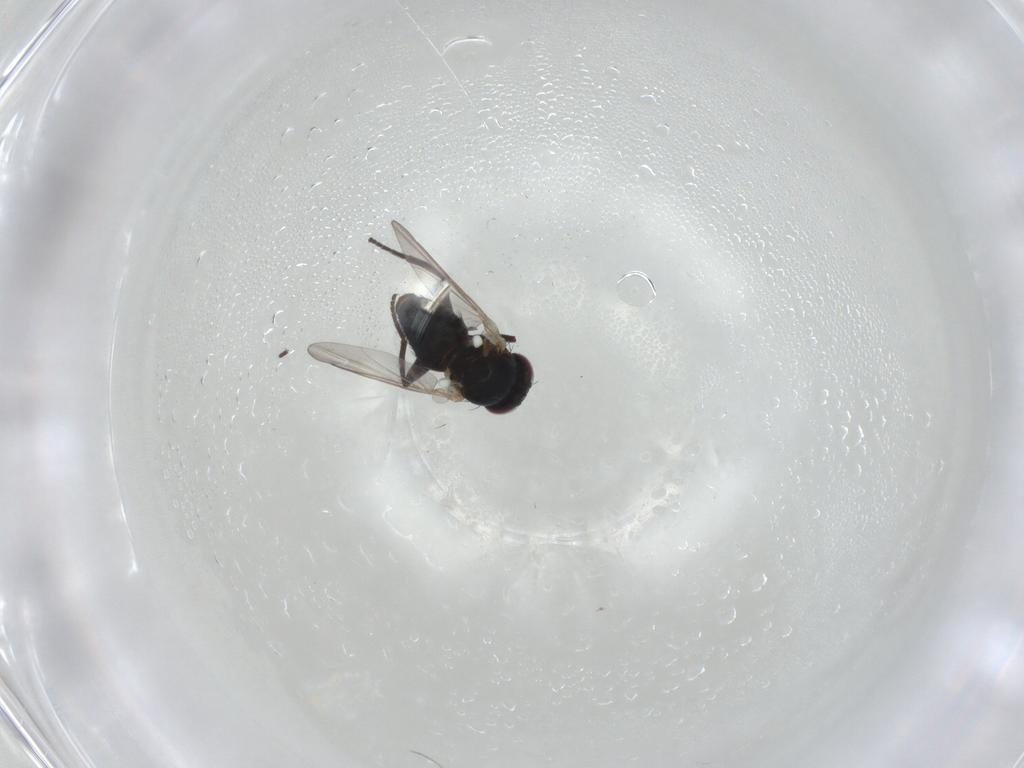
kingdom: Animalia
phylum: Arthropoda
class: Insecta
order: Diptera
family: Agromyzidae
